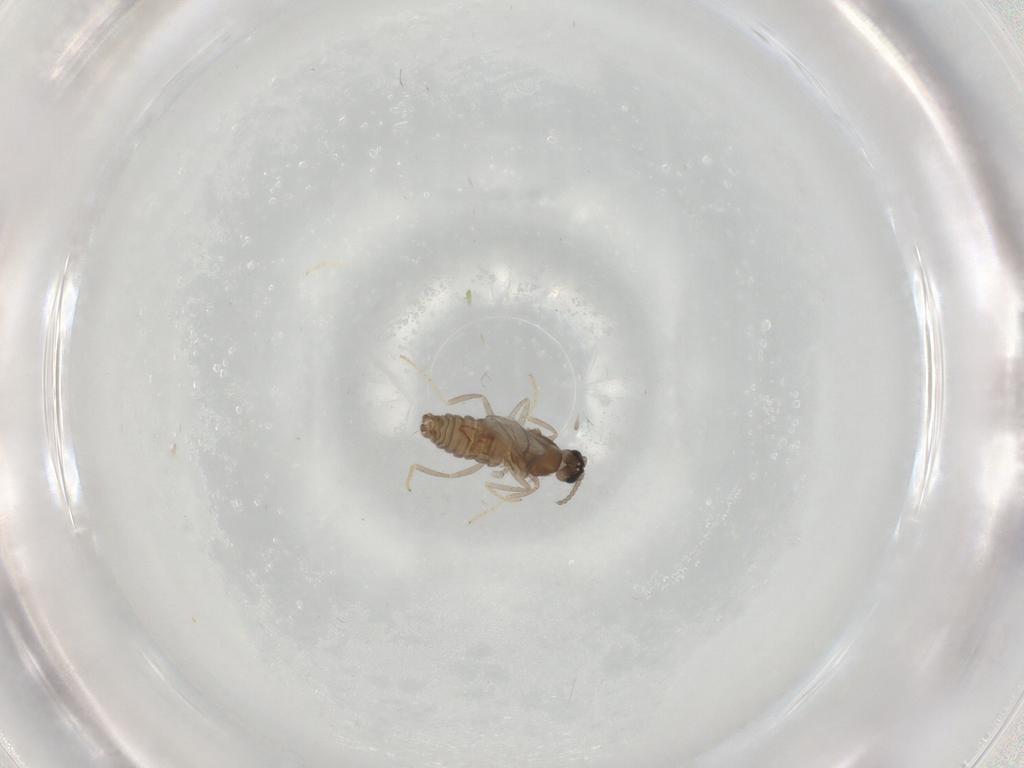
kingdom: Animalia
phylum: Arthropoda
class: Insecta
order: Diptera
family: Cecidomyiidae
